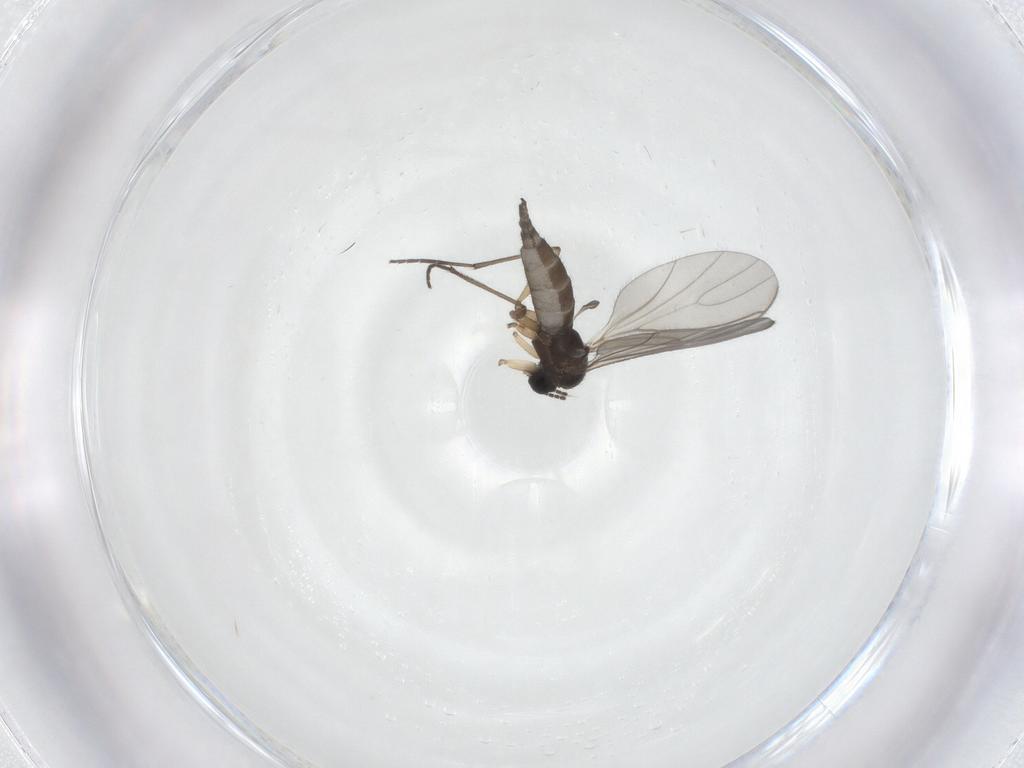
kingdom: Animalia
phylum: Arthropoda
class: Insecta
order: Diptera
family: Sciaridae
